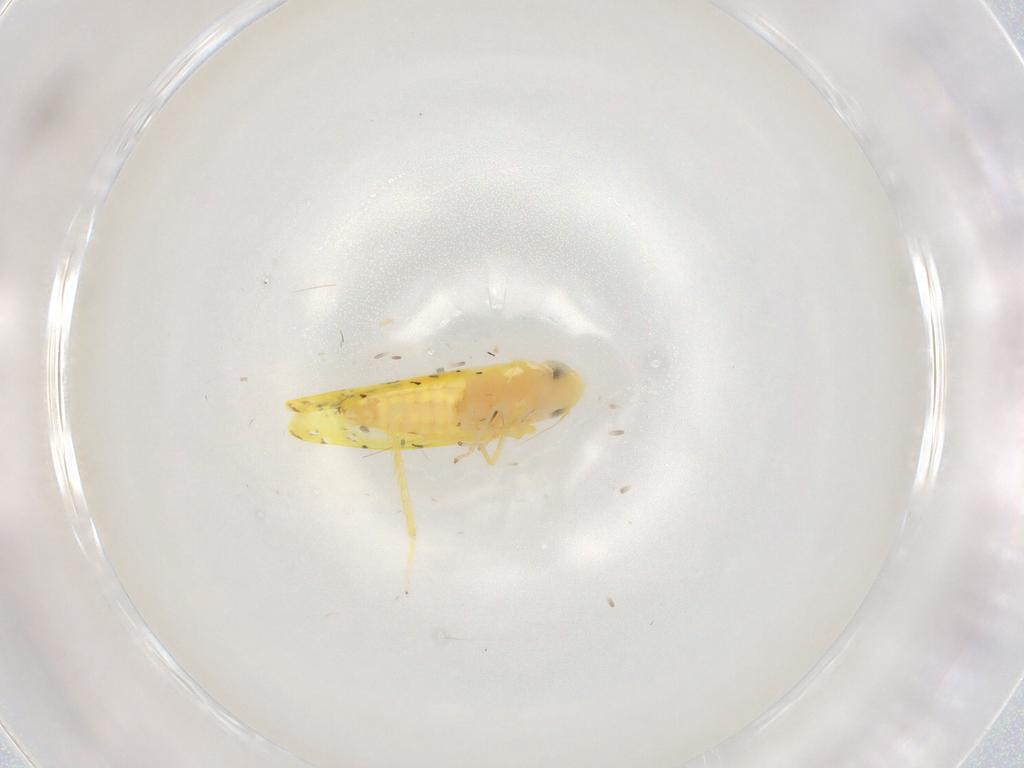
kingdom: Animalia
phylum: Arthropoda
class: Insecta
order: Hemiptera
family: Cicadellidae
